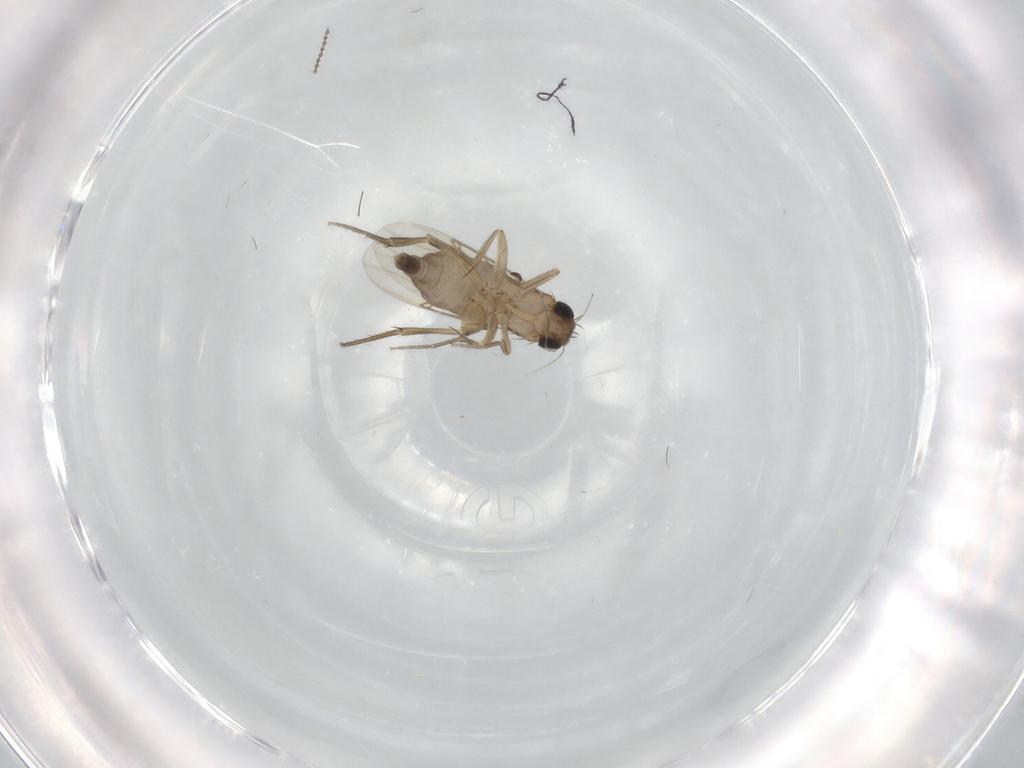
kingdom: Animalia
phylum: Arthropoda
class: Insecta
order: Diptera
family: Phoridae
